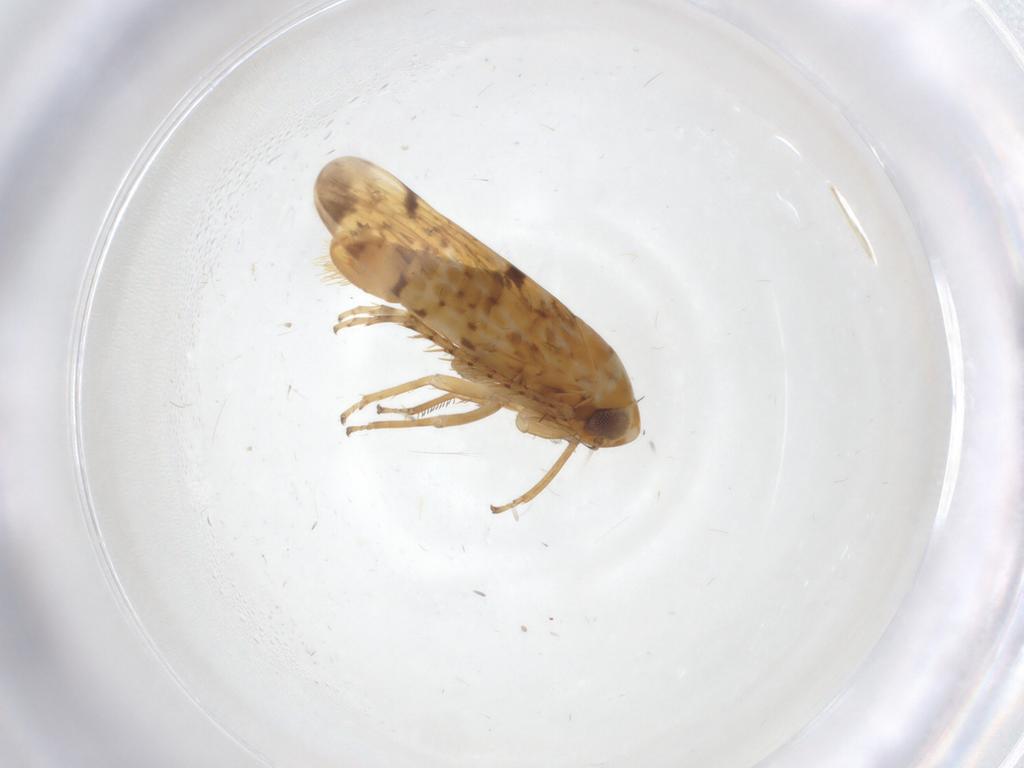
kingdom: Animalia
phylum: Arthropoda
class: Insecta
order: Hemiptera
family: Cicadellidae
